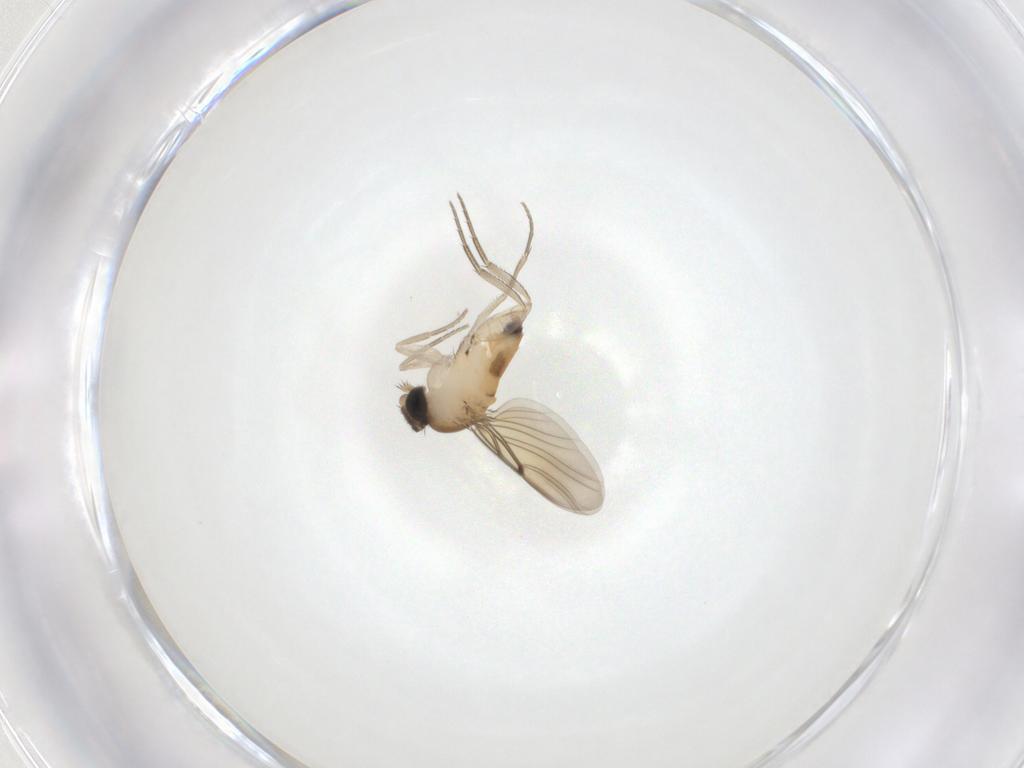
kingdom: Animalia
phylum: Arthropoda
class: Insecta
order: Diptera
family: Phoridae
